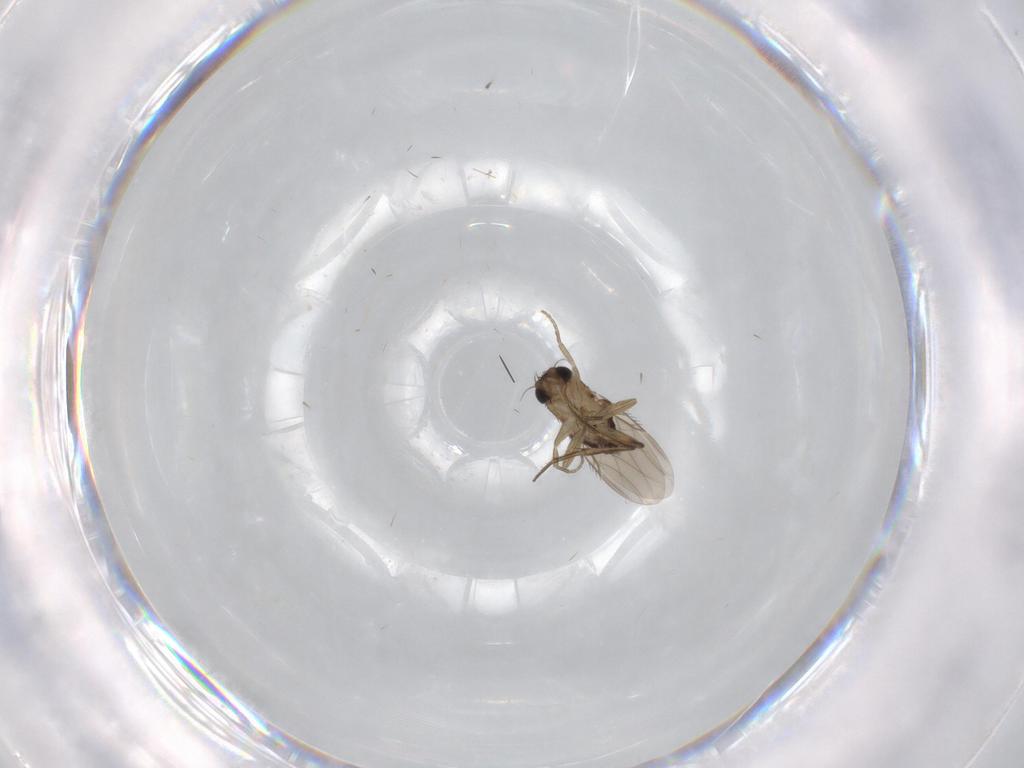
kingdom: Animalia
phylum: Arthropoda
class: Insecta
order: Diptera
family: Phoridae
